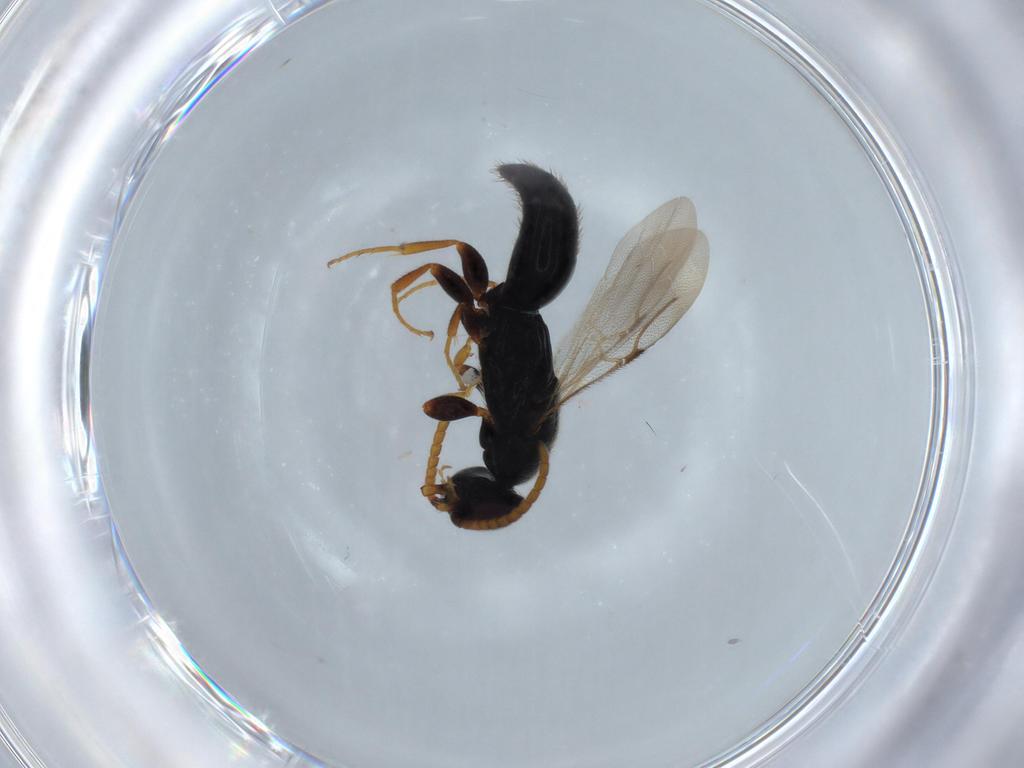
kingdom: Animalia
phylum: Arthropoda
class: Insecta
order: Hymenoptera
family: Bethylidae
